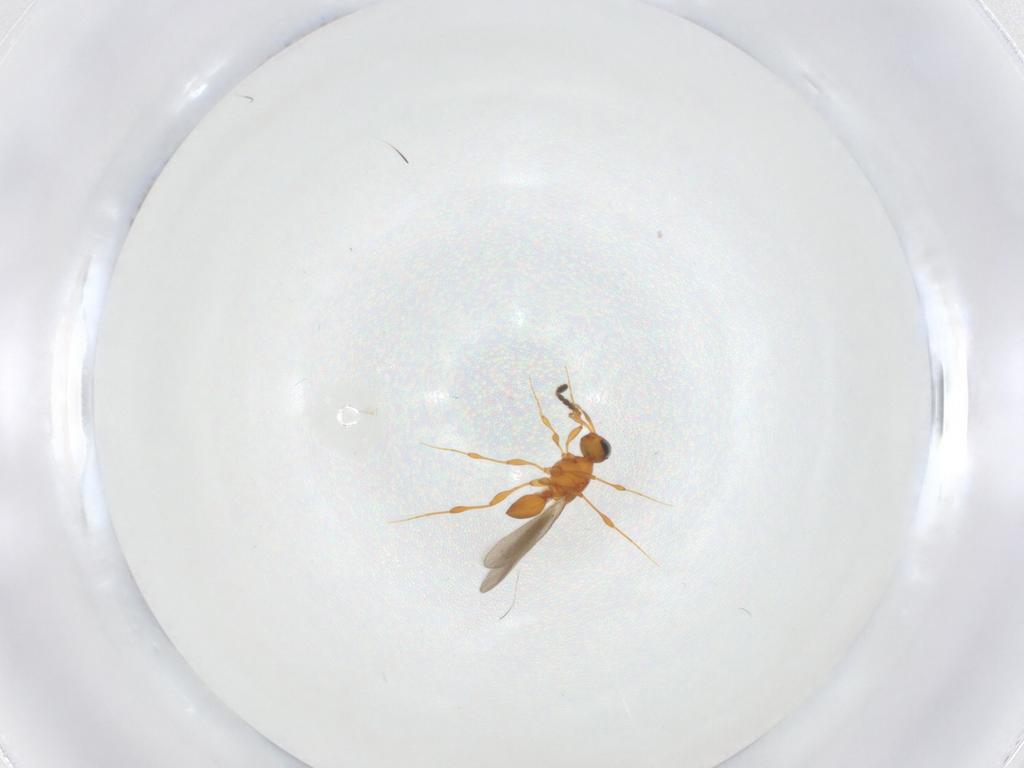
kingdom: Animalia
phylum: Arthropoda
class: Insecta
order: Hymenoptera
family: Platygastridae
